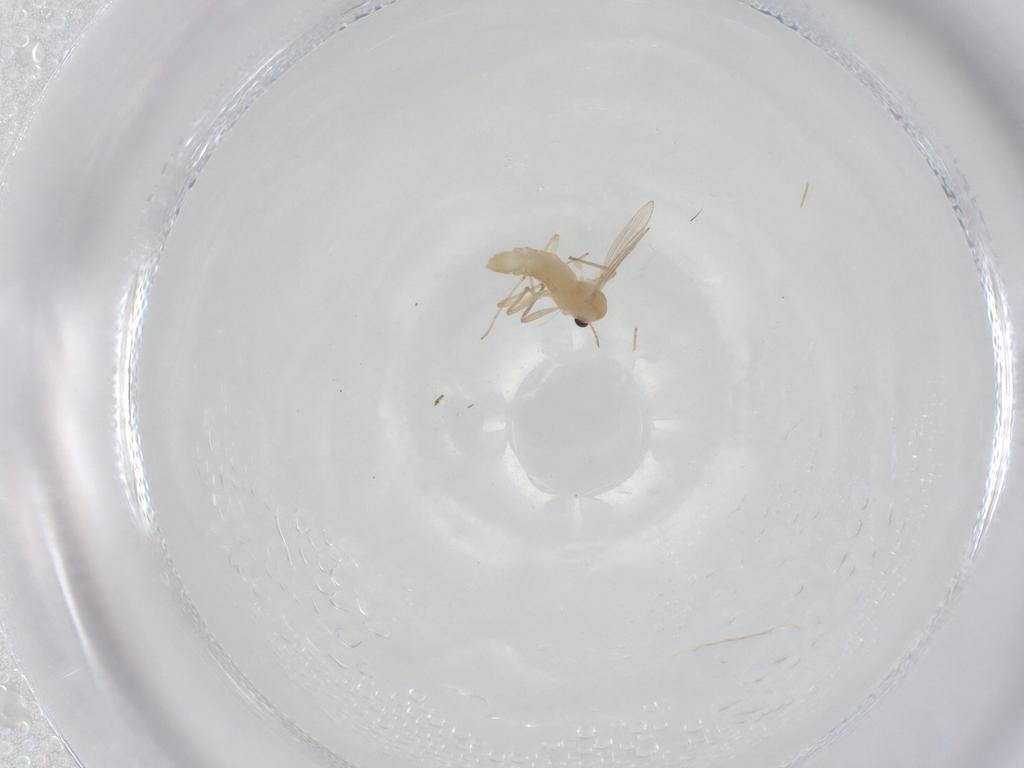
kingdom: Animalia
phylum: Arthropoda
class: Insecta
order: Diptera
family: Chironomidae
